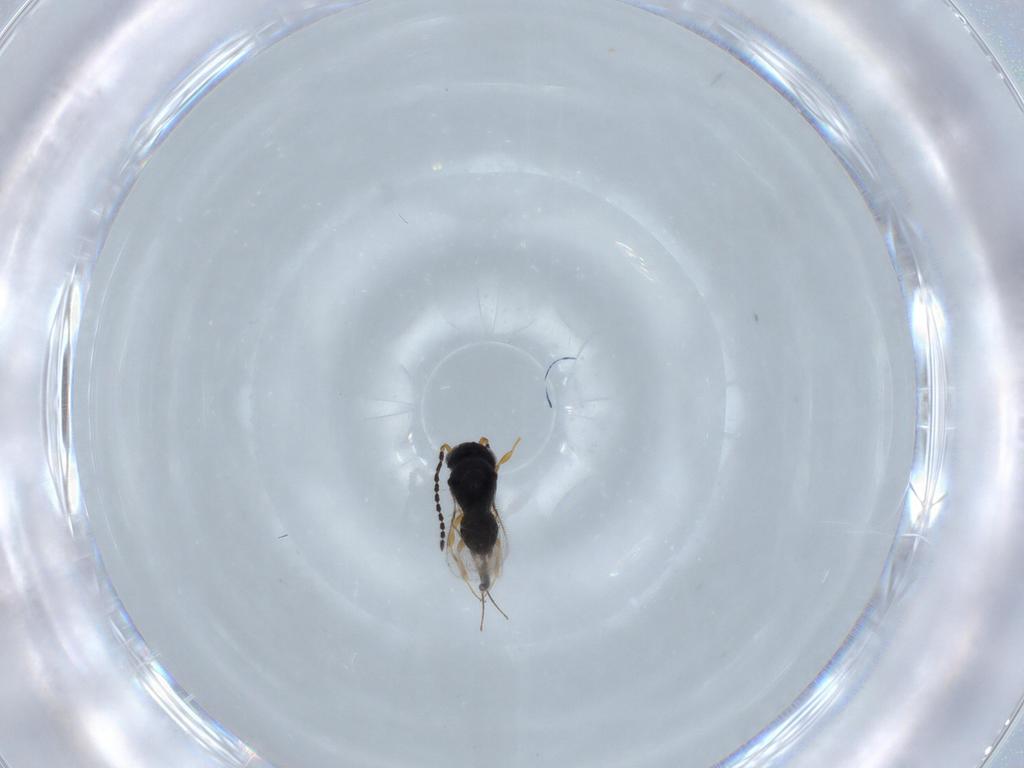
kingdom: Animalia
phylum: Arthropoda
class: Insecta
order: Hymenoptera
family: Scelionidae
